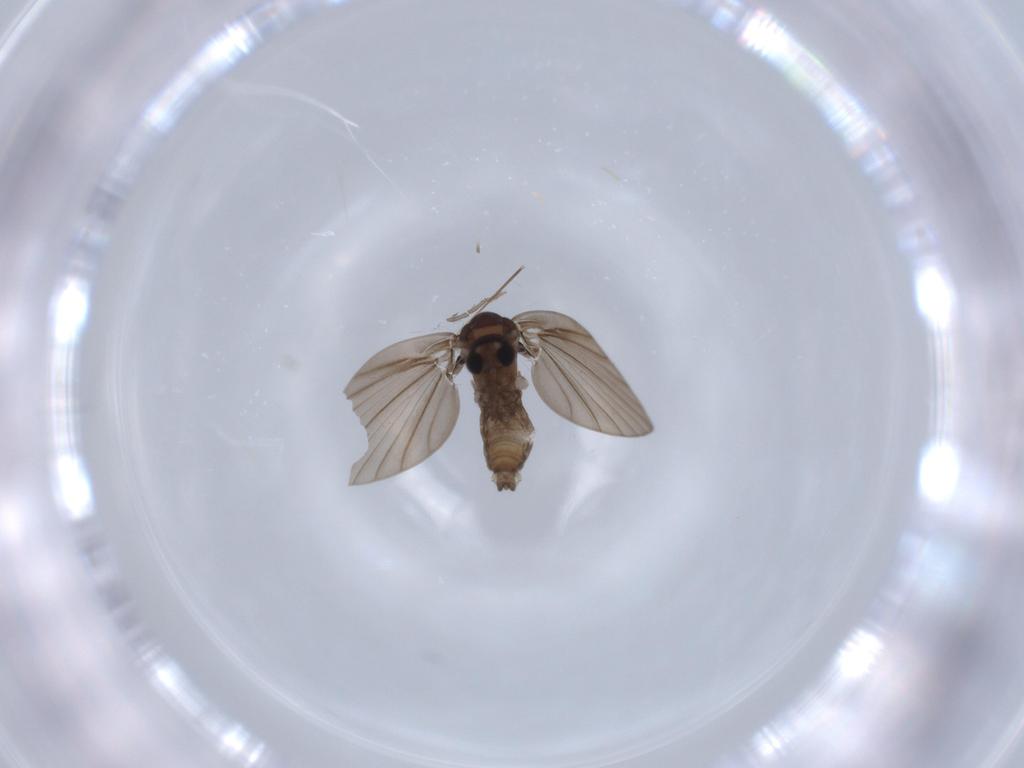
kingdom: Animalia
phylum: Arthropoda
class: Insecta
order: Diptera
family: Psychodidae
